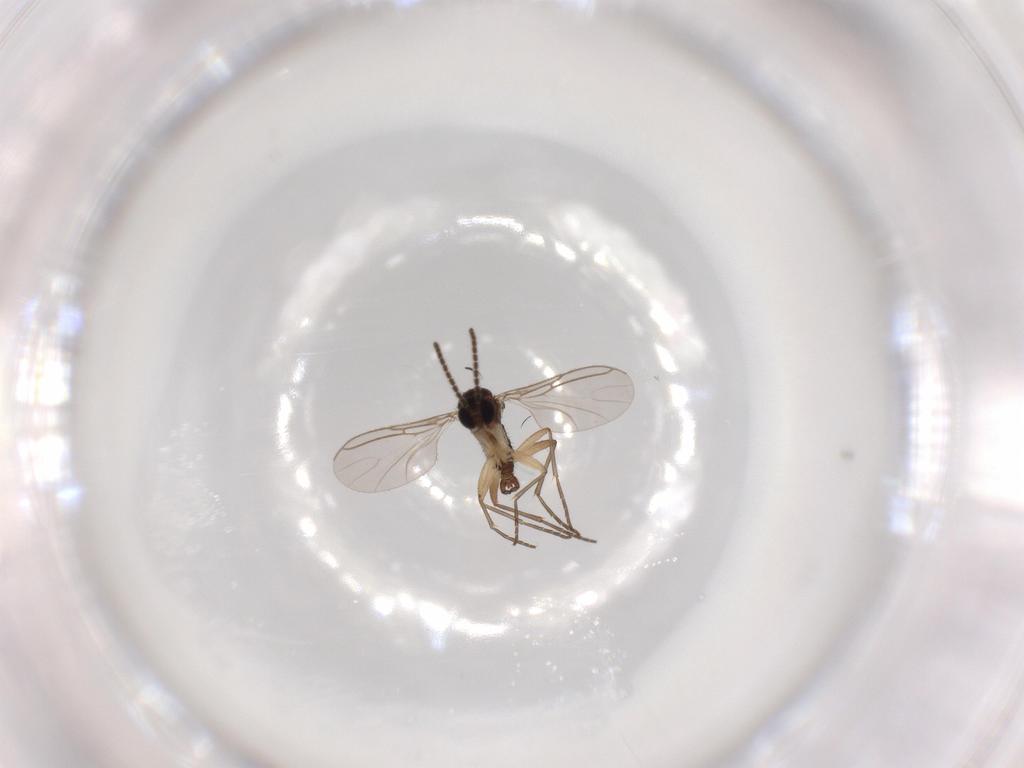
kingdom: Animalia
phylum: Arthropoda
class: Insecta
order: Diptera
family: Sciaridae
